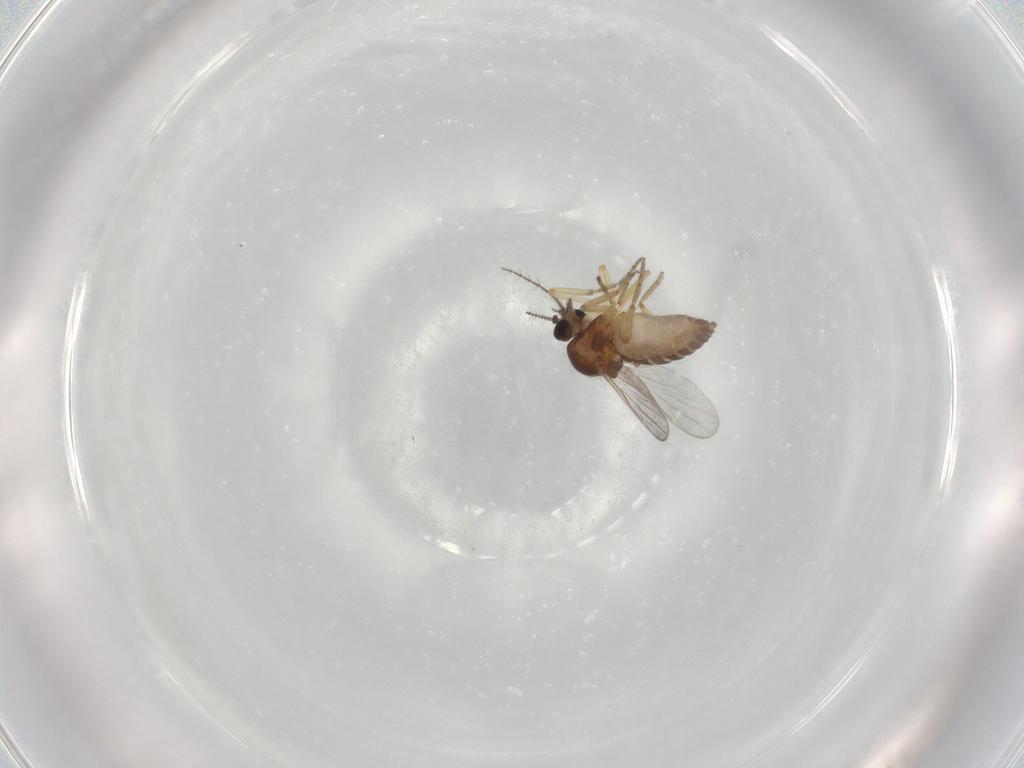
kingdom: Animalia
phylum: Arthropoda
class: Insecta
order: Diptera
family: Ceratopogonidae
